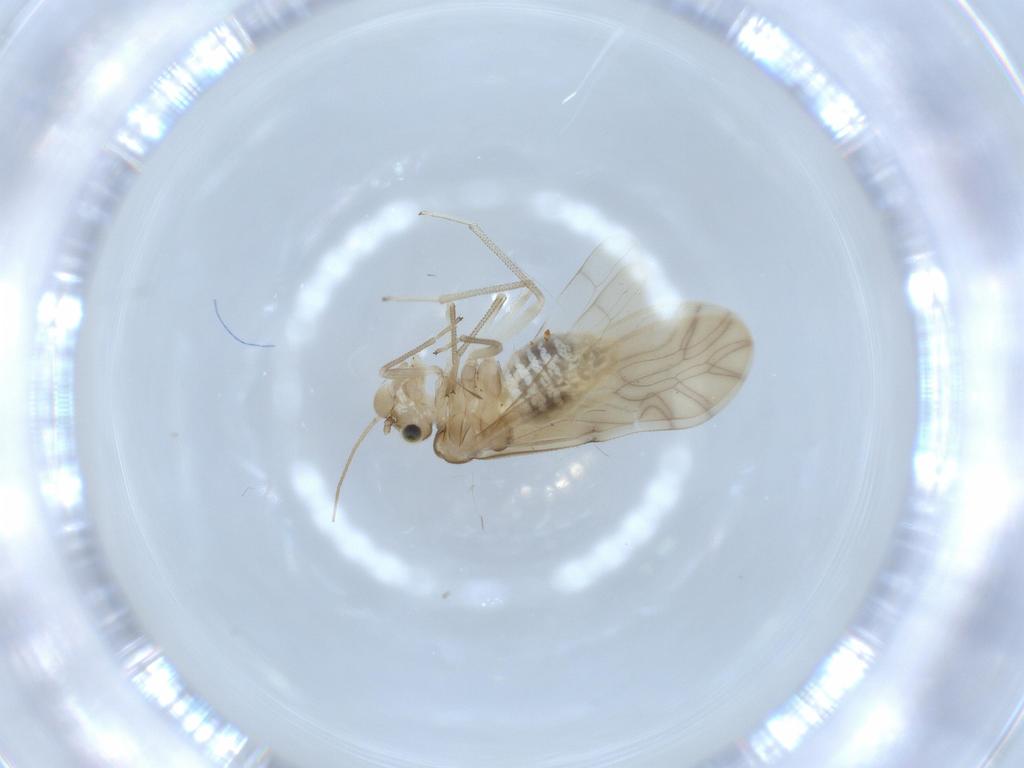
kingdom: Animalia
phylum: Arthropoda
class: Insecta
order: Psocodea
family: Caeciliusidae
